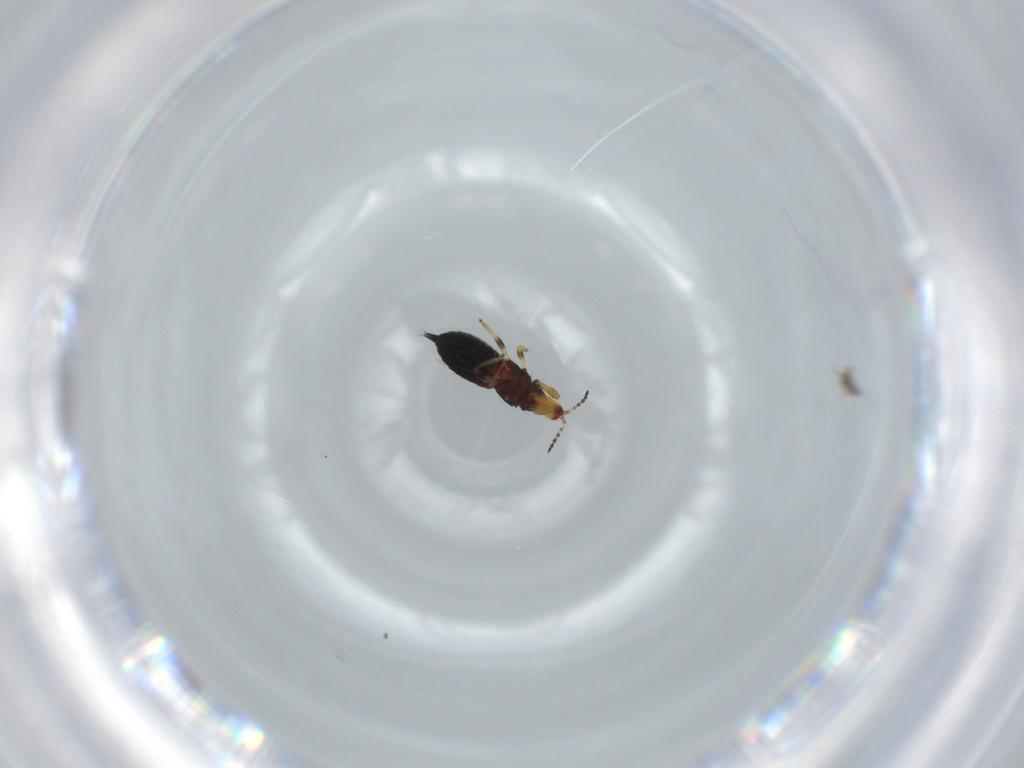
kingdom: Animalia
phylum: Arthropoda
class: Insecta
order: Thysanoptera
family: Phlaeothripidae
